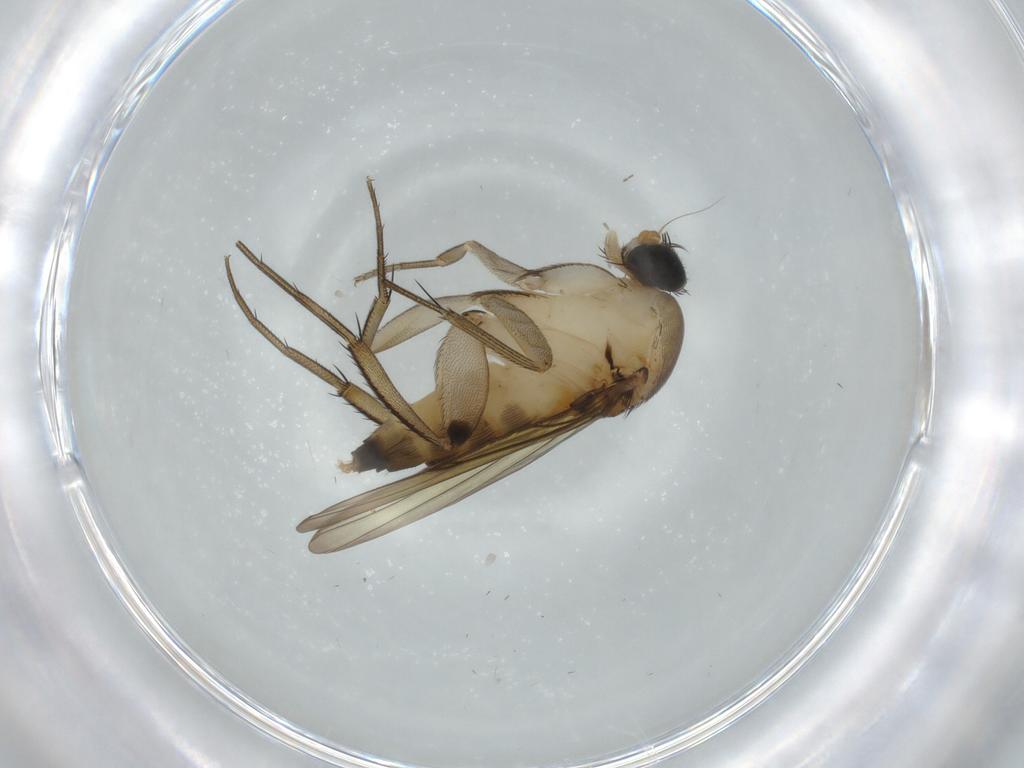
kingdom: Animalia
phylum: Arthropoda
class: Insecta
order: Diptera
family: Phoridae
